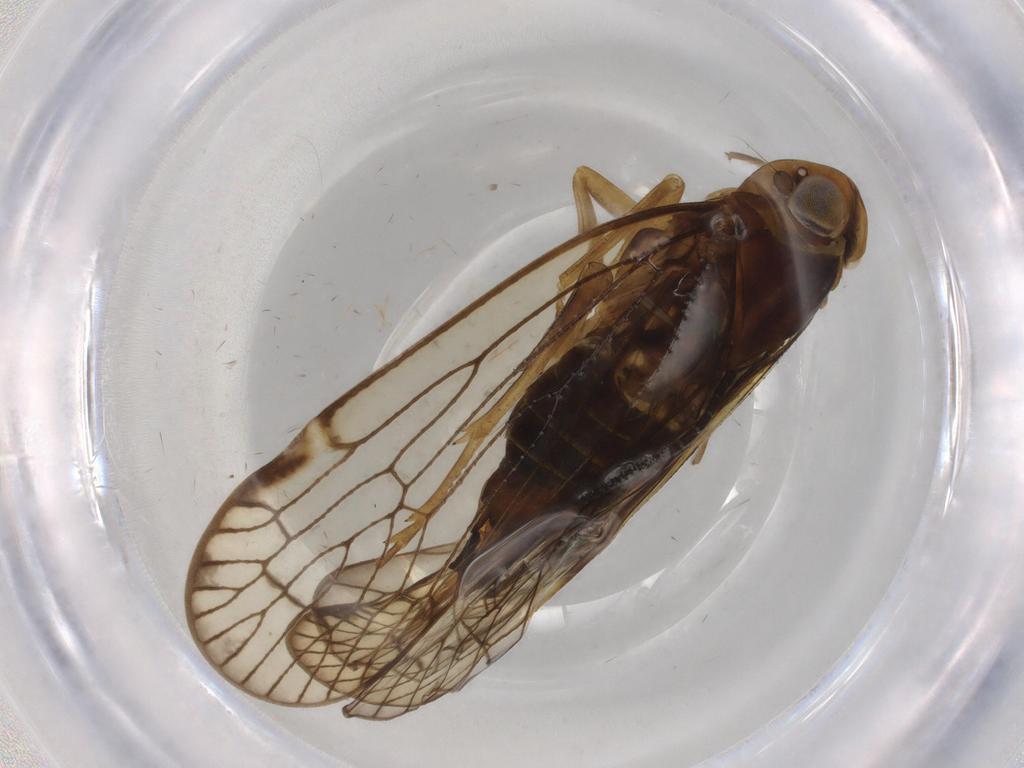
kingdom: Animalia
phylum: Arthropoda
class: Insecta
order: Hemiptera
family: Cixiidae
